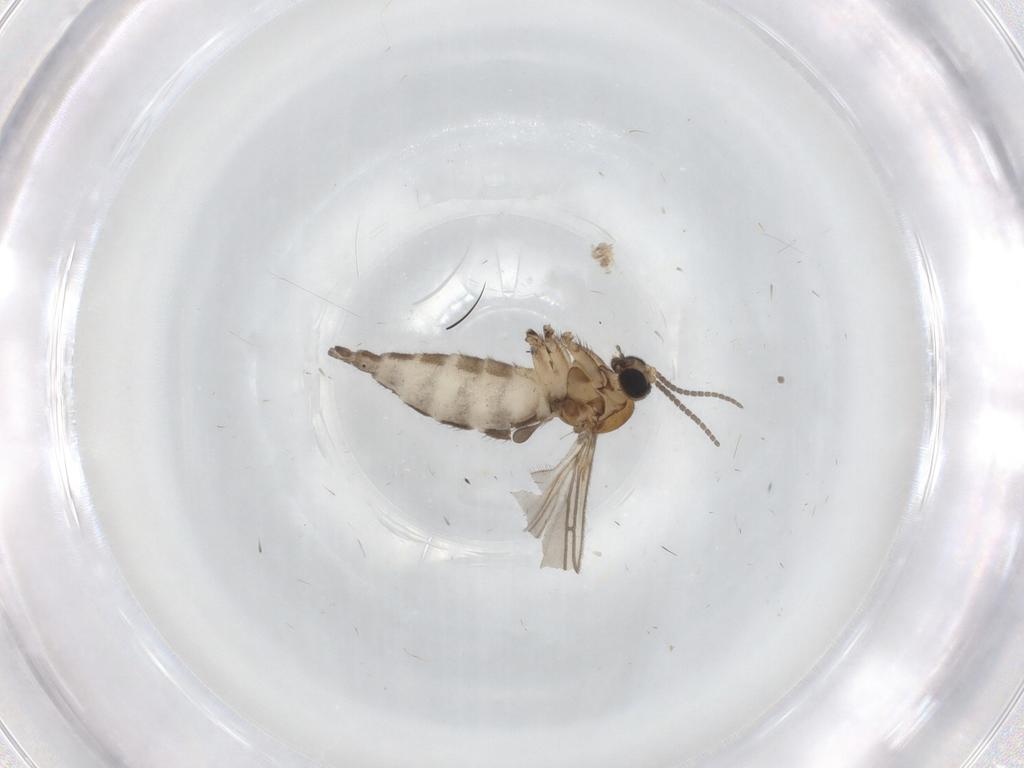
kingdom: Animalia
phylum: Arthropoda
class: Insecta
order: Diptera
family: Sciaridae
